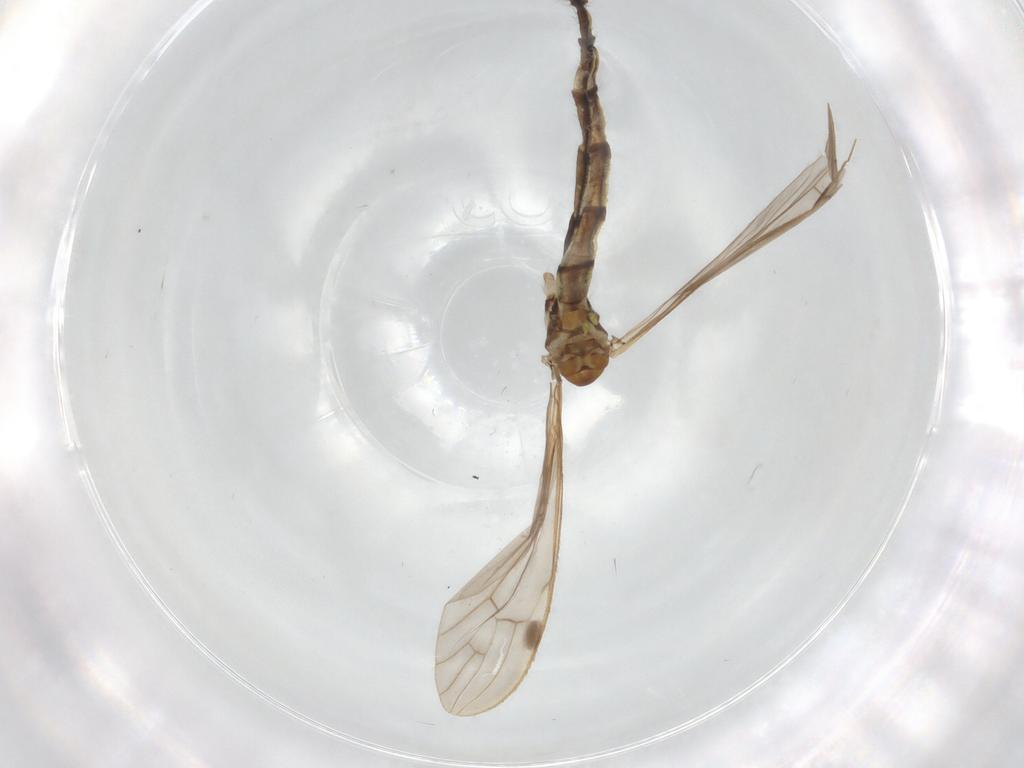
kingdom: Animalia
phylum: Arthropoda
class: Insecta
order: Diptera
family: Limoniidae
